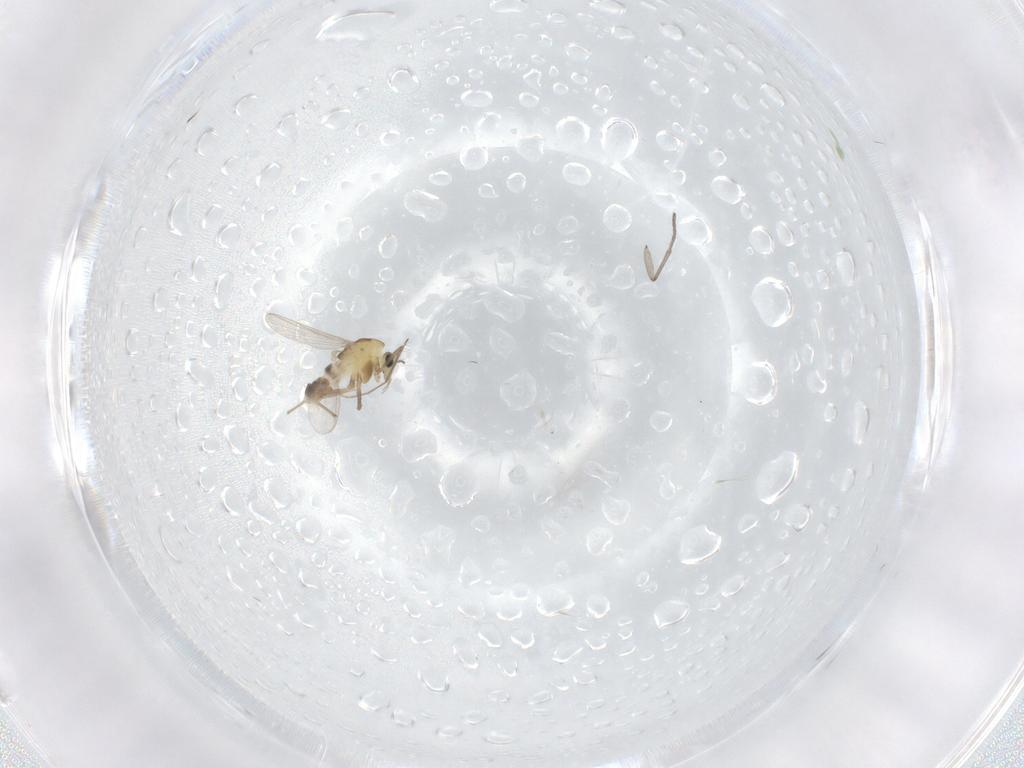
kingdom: Animalia
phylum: Arthropoda
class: Insecta
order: Diptera
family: Chironomidae
